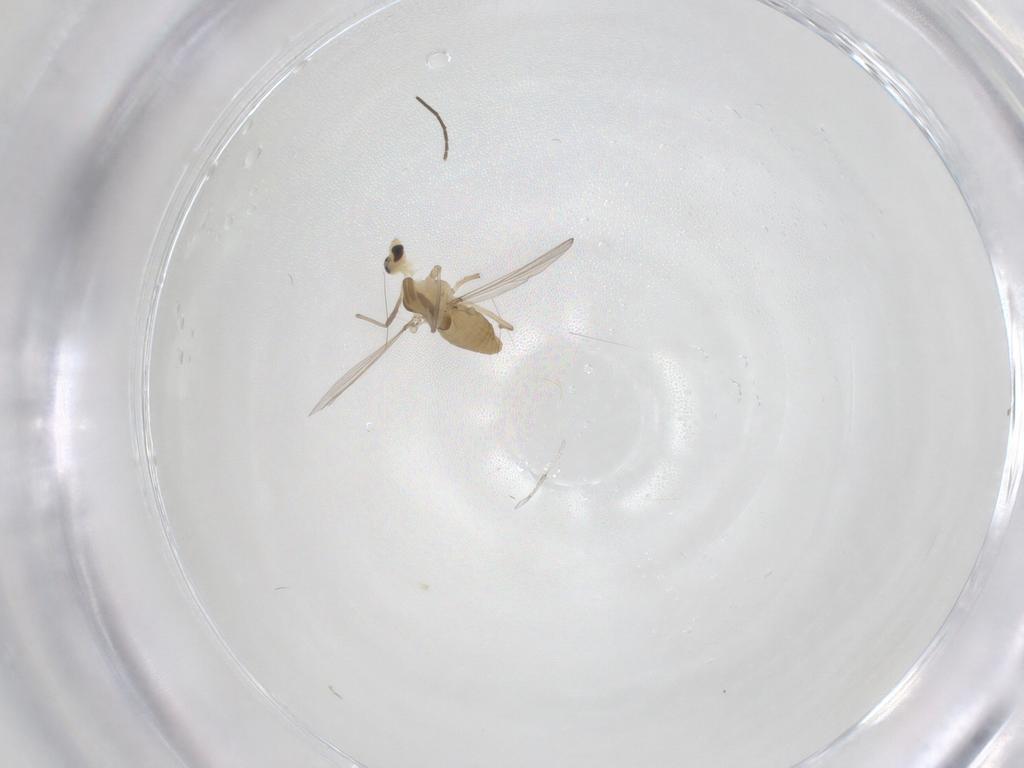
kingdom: Animalia
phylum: Arthropoda
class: Insecta
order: Diptera
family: Chironomidae
